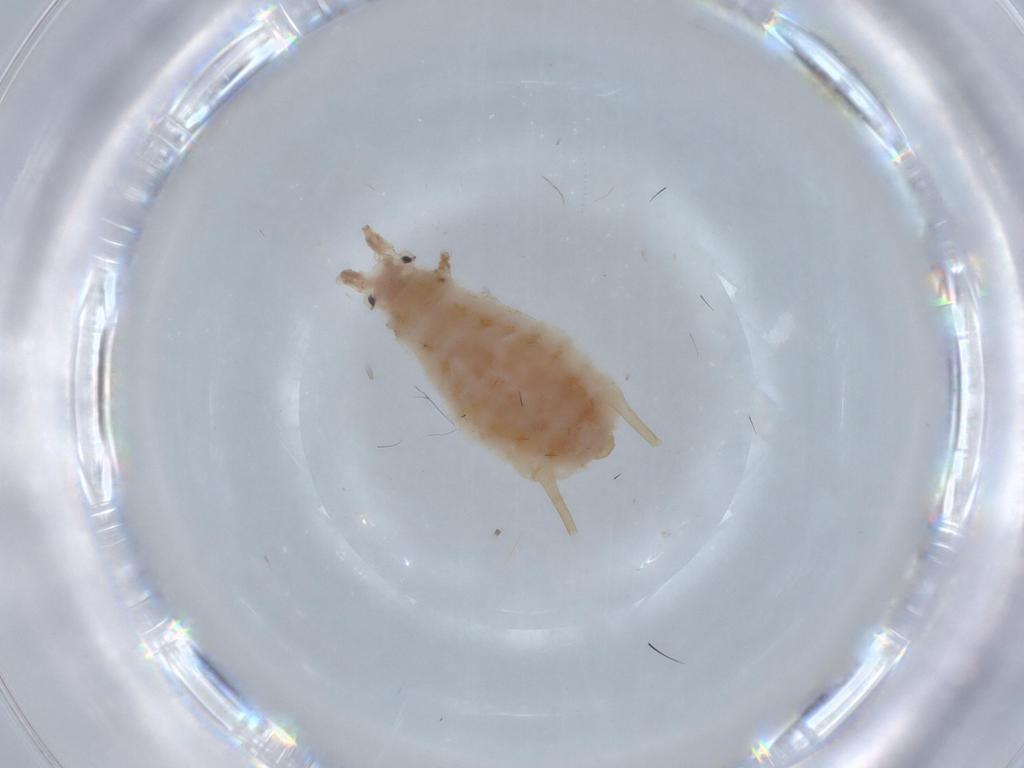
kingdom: Animalia
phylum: Arthropoda
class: Insecta
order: Hemiptera
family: Aphididae
